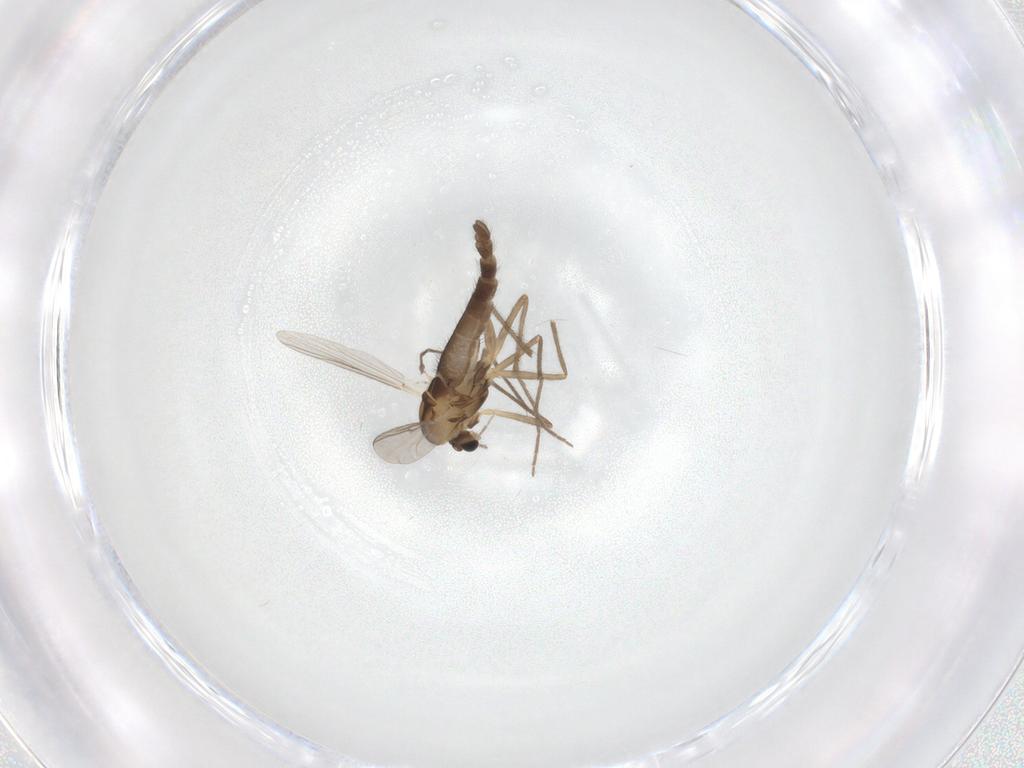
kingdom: Animalia
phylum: Arthropoda
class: Insecta
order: Diptera
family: Chironomidae
